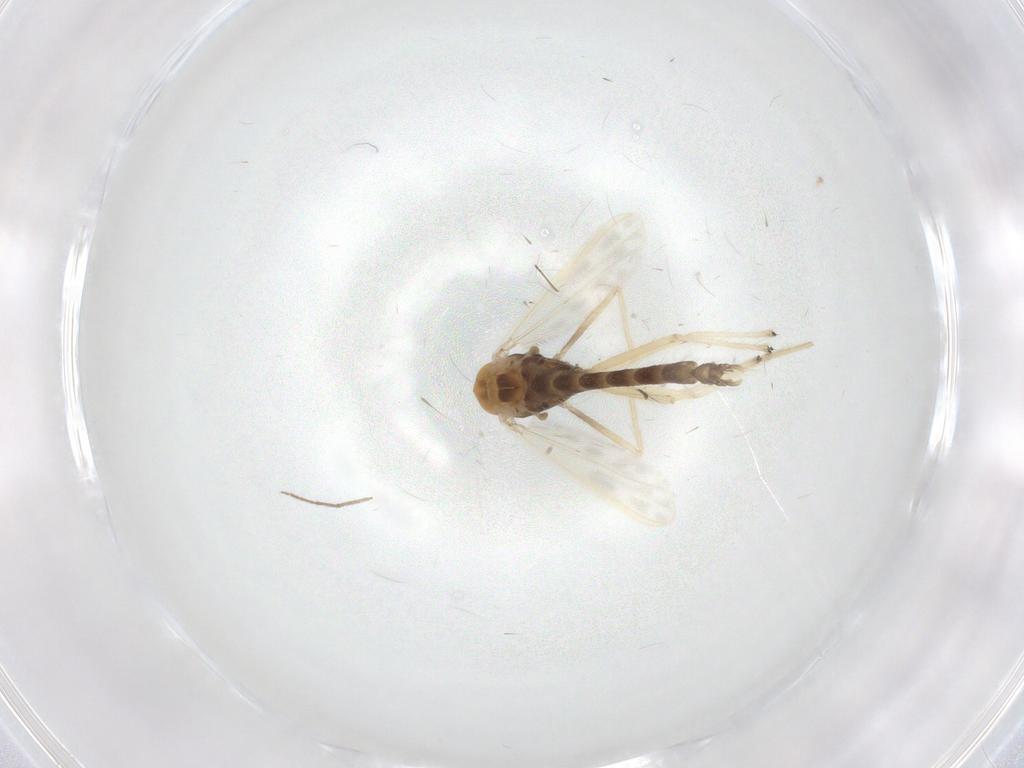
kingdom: Animalia
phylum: Arthropoda
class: Insecta
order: Diptera
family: Chironomidae
